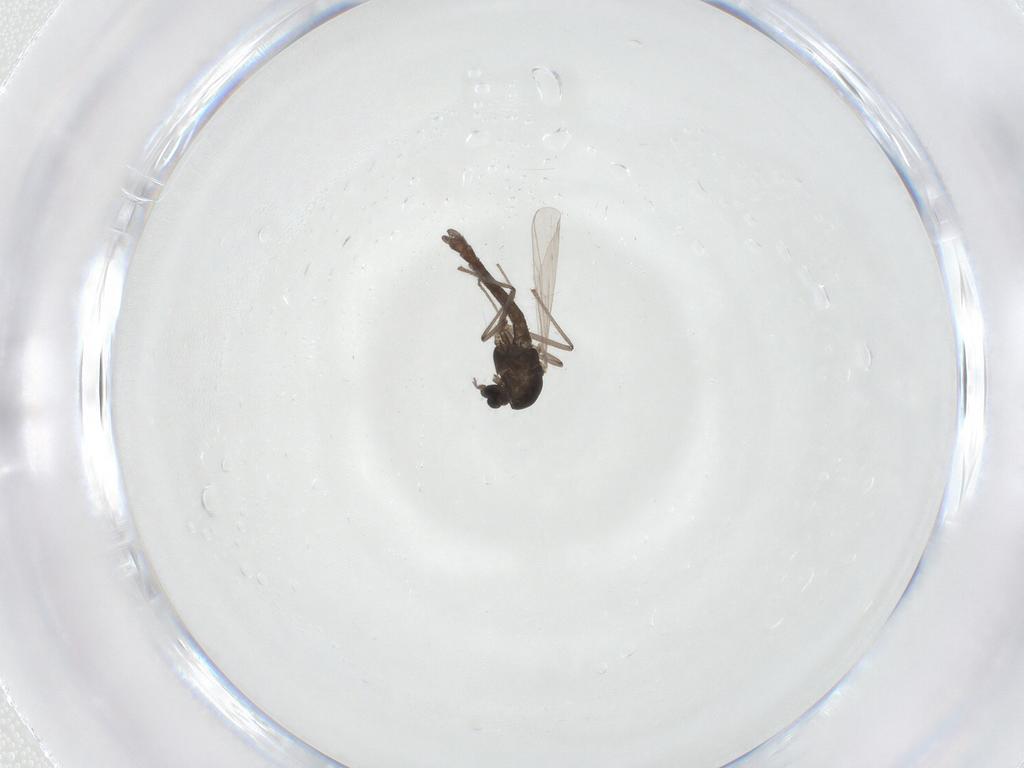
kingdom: Animalia
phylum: Arthropoda
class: Insecta
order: Diptera
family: Chironomidae
